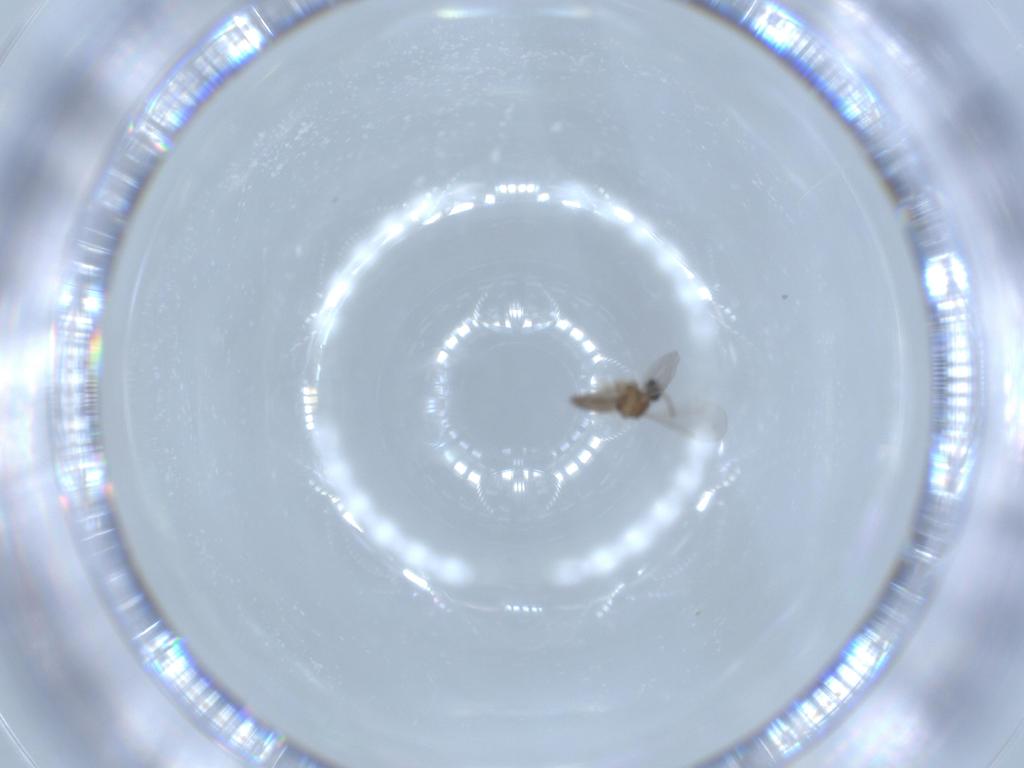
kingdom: Animalia
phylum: Arthropoda
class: Insecta
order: Diptera
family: Cecidomyiidae
